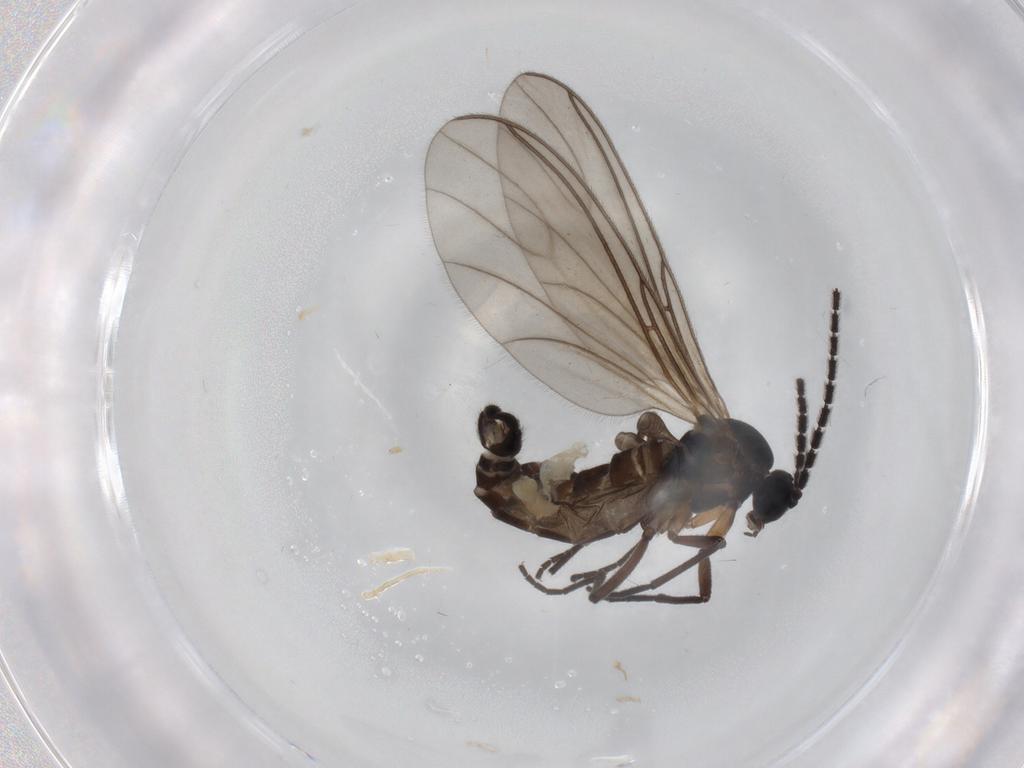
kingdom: Animalia
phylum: Arthropoda
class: Insecta
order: Diptera
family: Sciaridae
